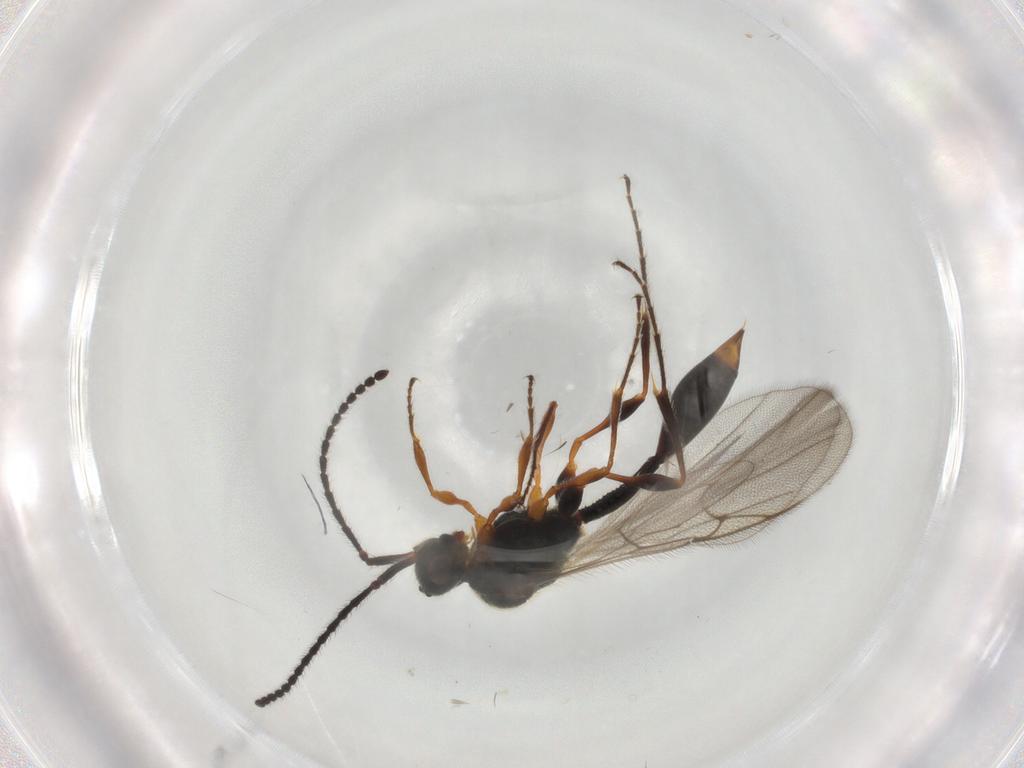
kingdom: Animalia
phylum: Arthropoda
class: Insecta
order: Hymenoptera
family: Diapriidae
